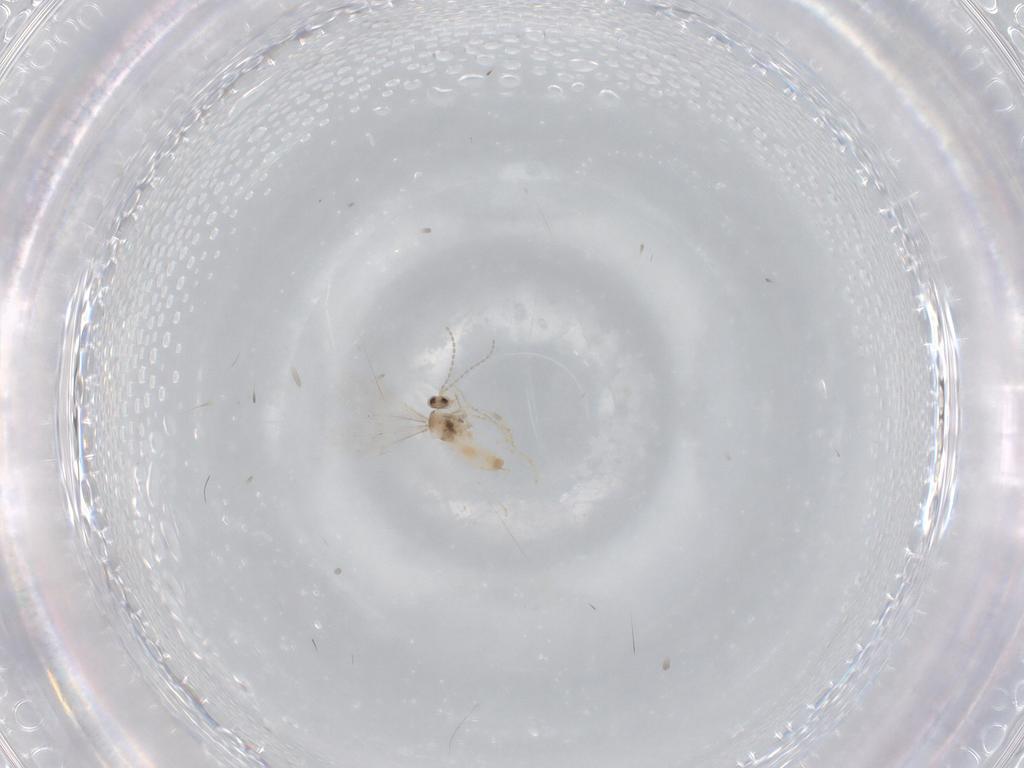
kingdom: Animalia
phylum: Arthropoda
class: Insecta
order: Diptera
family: Cecidomyiidae
